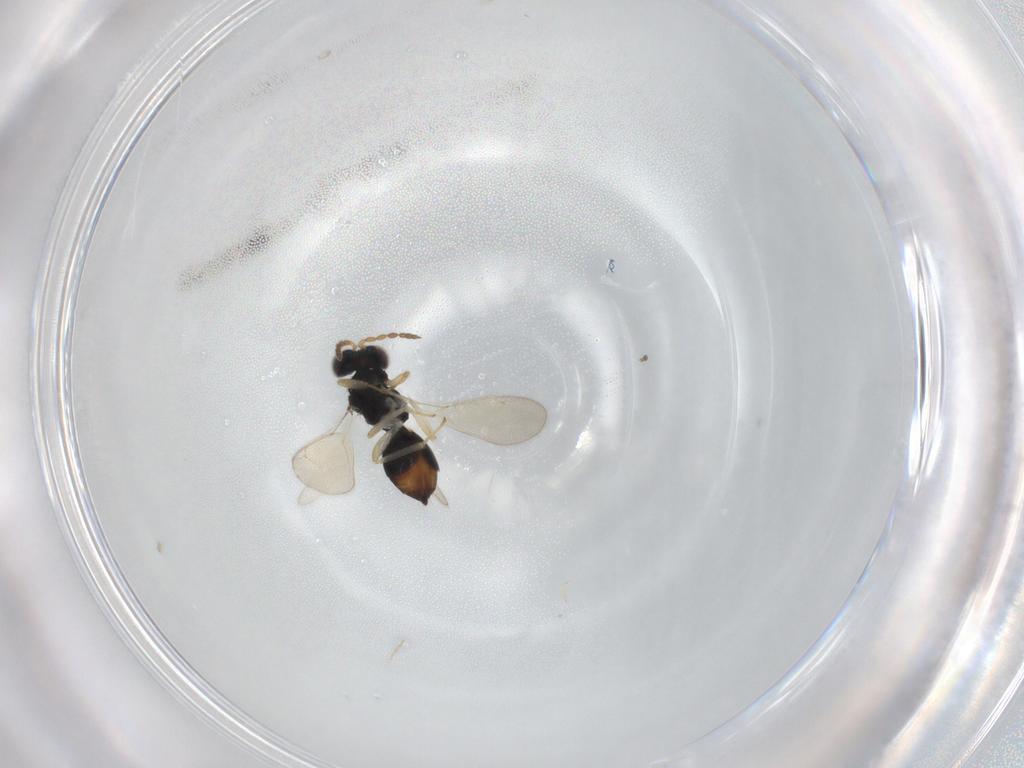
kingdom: Animalia
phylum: Arthropoda
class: Insecta
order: Hymenoptera
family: Eulophidae
